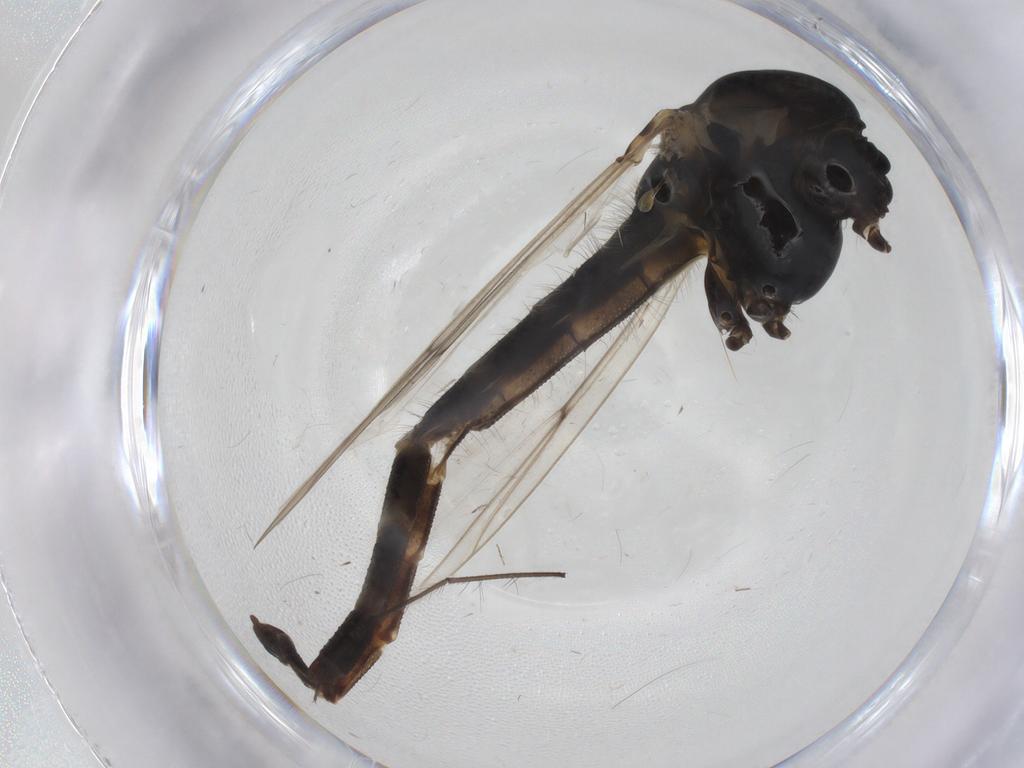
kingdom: Animalia
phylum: Arthropoda
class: Insecta
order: Diptera
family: Chironomidae
